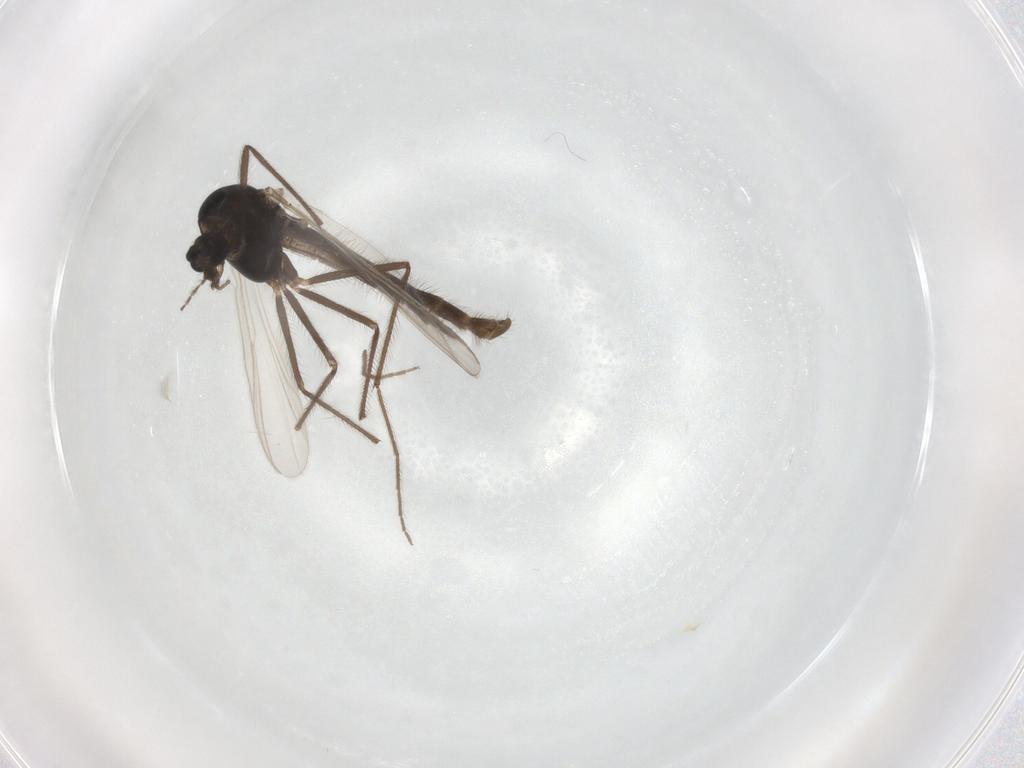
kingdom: Animalia
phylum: Arthropoda
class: Insecta
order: Diptera
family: Chironomidae
